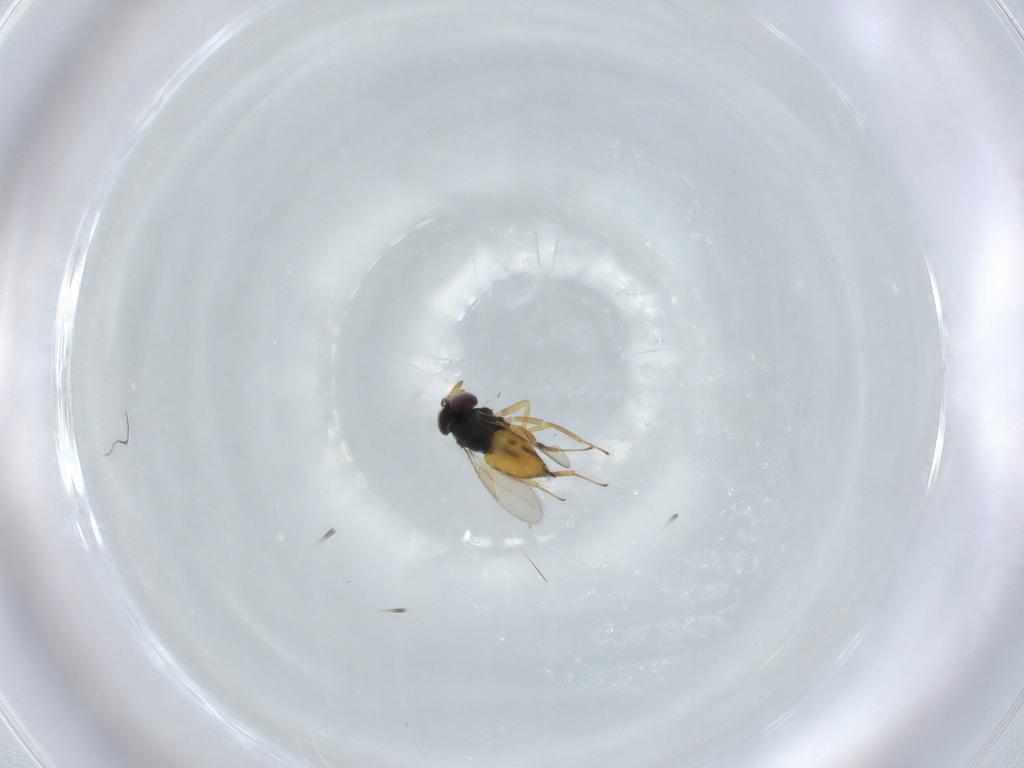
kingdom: Animalia
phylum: Arthropoda
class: Insecta
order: Hymenoptera
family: Aphelinidae
